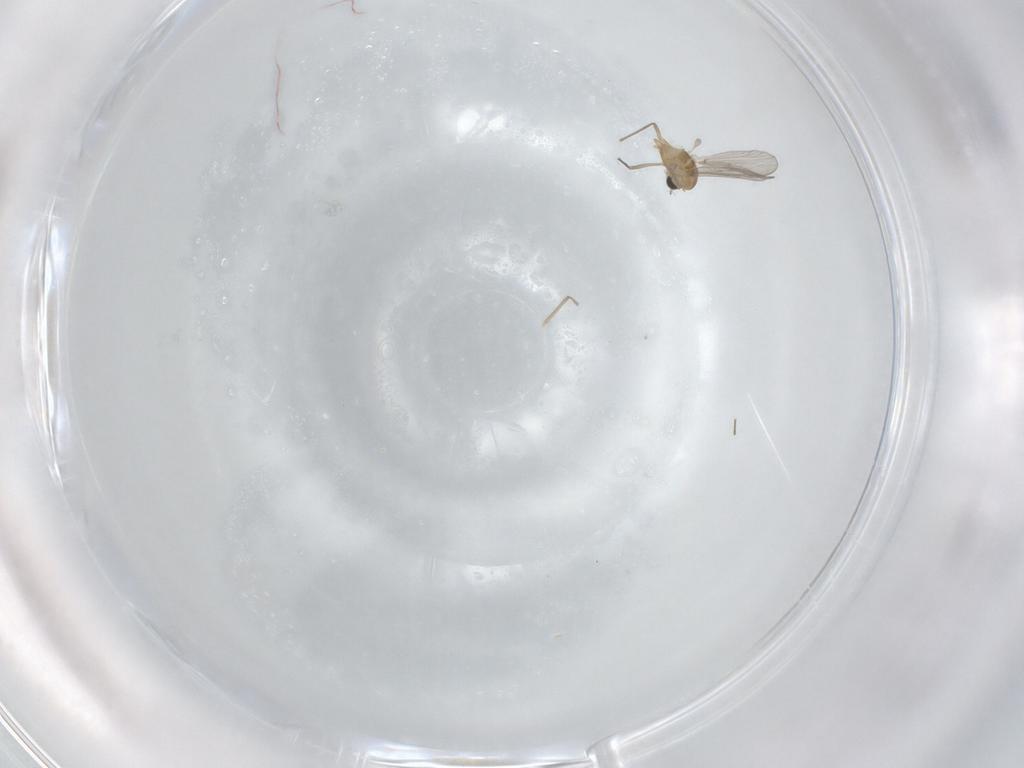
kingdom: Animalia
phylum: Arthropoda
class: Insecta
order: Diptera
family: Chironomidae
